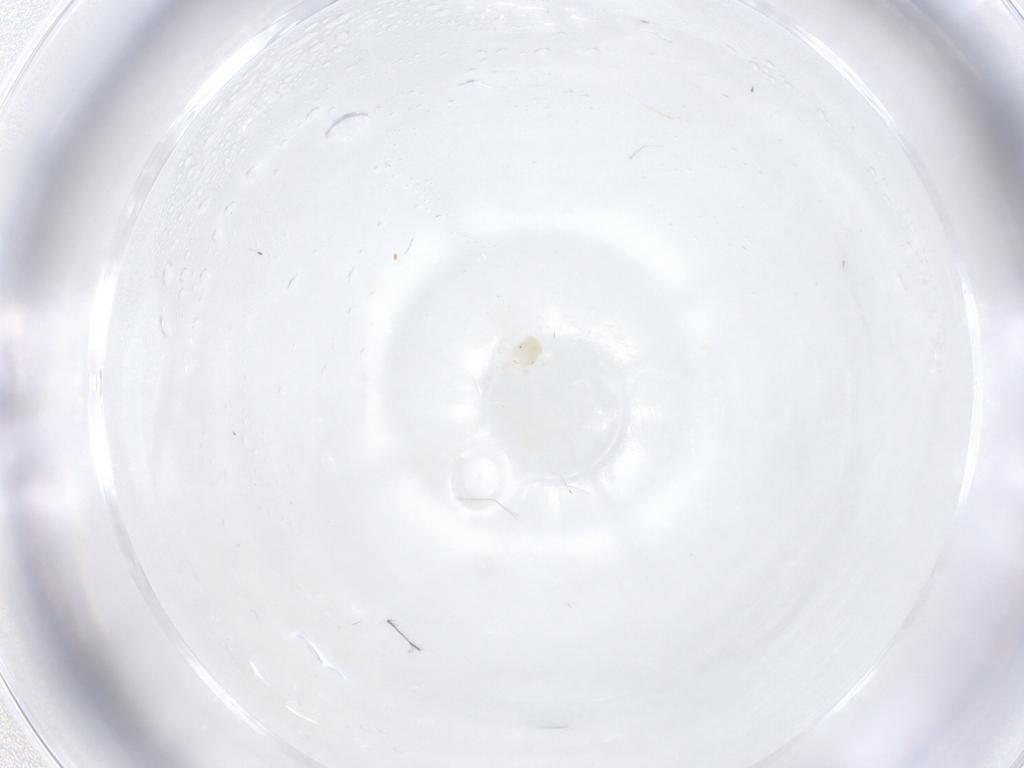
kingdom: Animalia
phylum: Arthropoda
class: Arachnida
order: Trombidiformes
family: Anystidae
